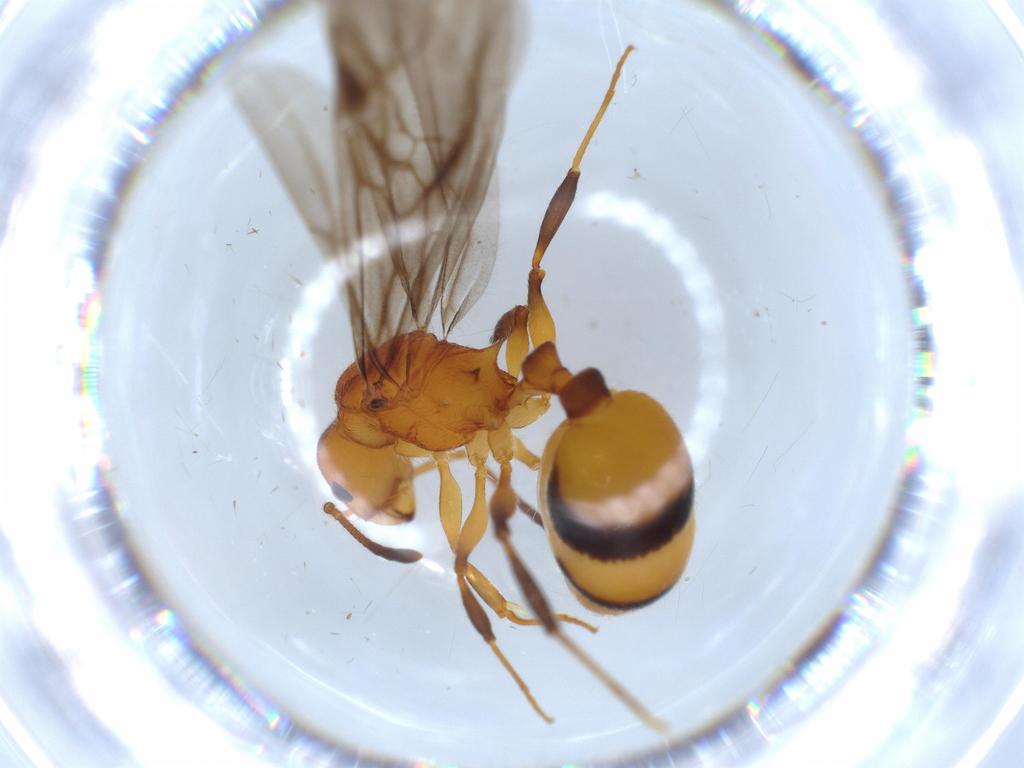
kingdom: Animalia
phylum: Arthropoda
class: Insecta
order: Hymenoptera
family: Formicidae
